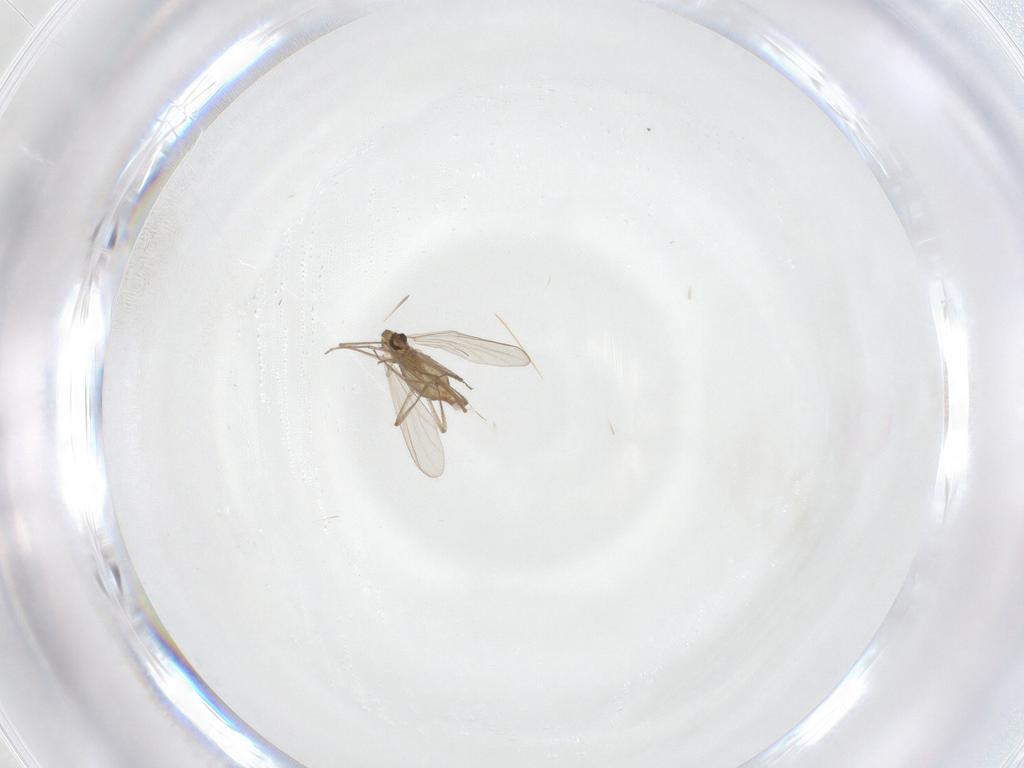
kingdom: Animalia
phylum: Arthropoda
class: Insecta
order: Diptera
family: Chironomidae
